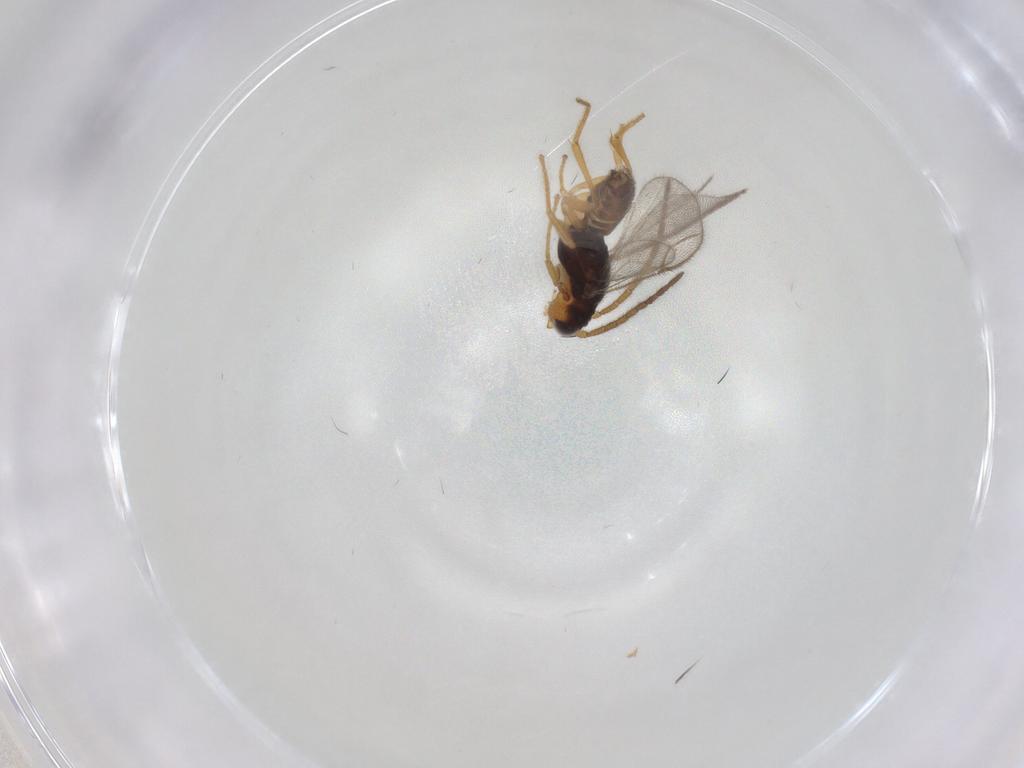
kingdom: Animalia
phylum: Arthropoda
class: Insecta
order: Hymenoptera
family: Dryinidae
